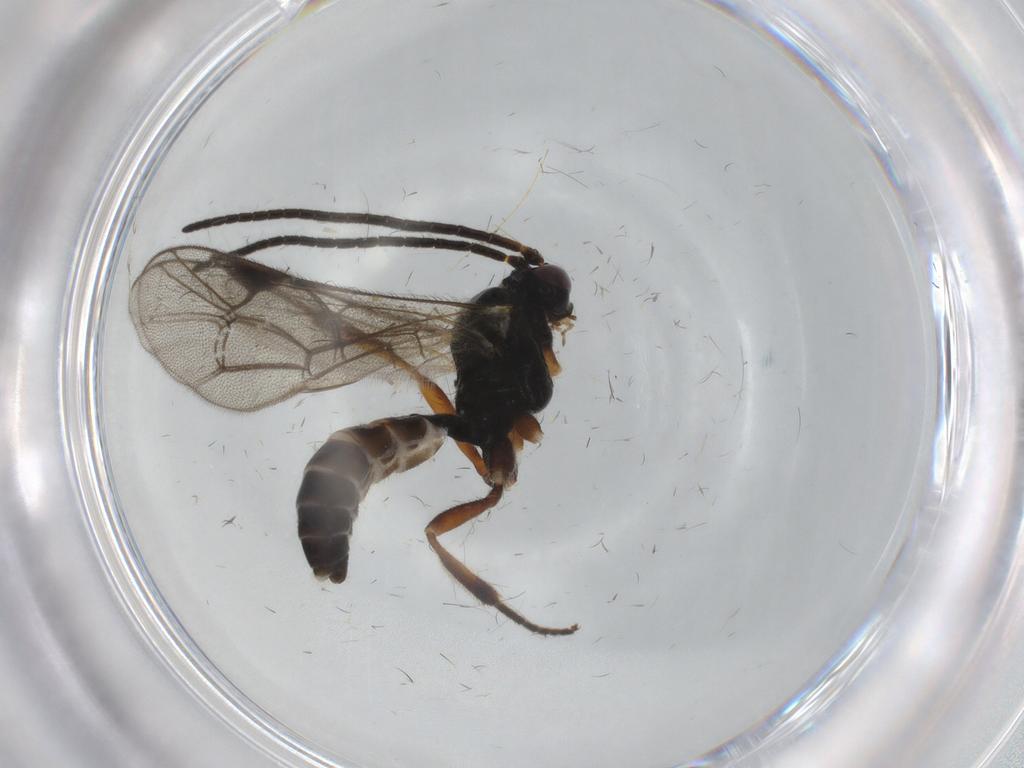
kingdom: Animalia
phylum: Arthropoda
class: Insecta
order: Hymenoptera
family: Ichneumonidae
